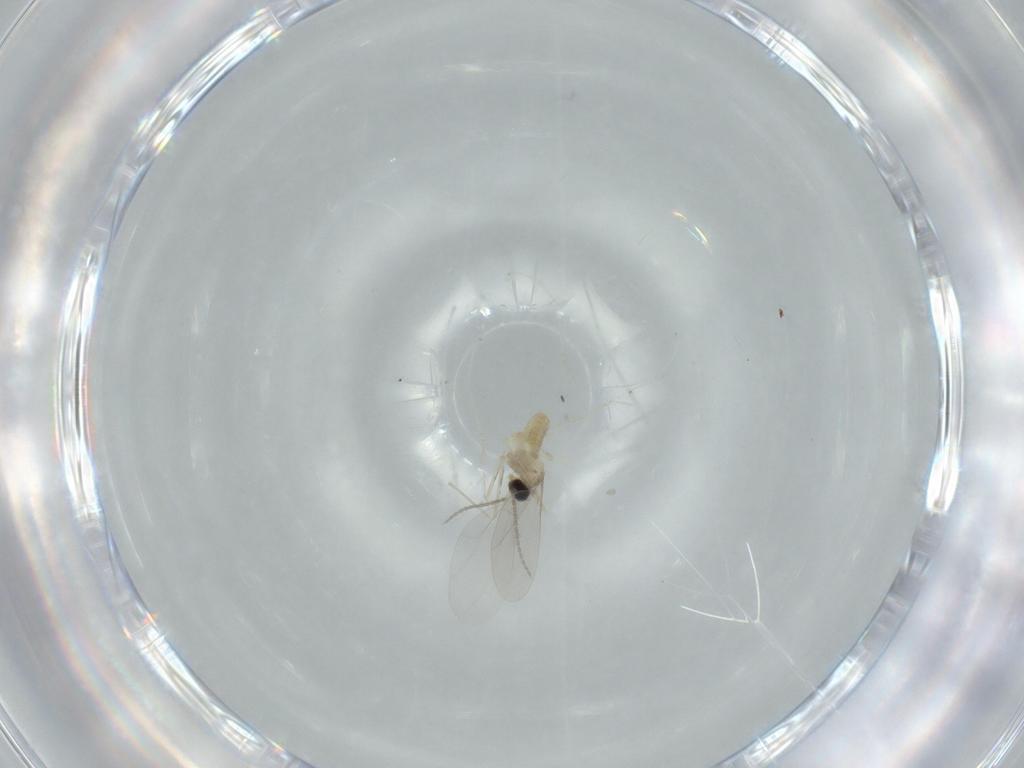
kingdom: Animalia
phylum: Arthropoda
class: Insecta
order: Diptera
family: Cecidomyiidae
